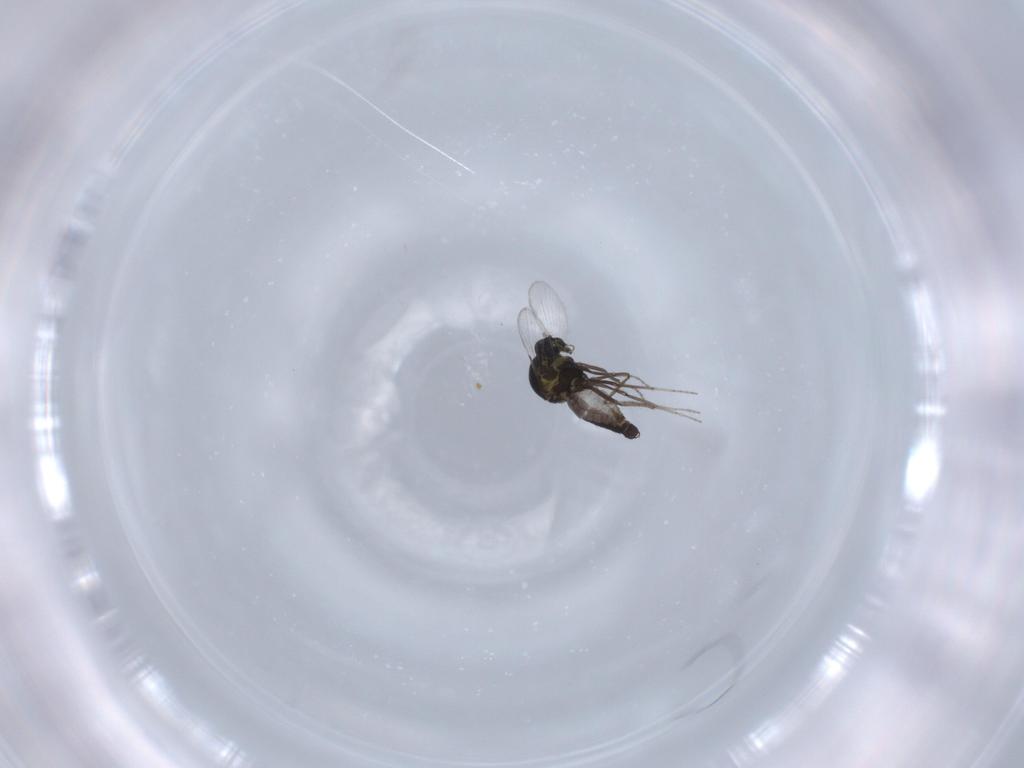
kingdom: Animalia
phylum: Arthropoda
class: Insecta
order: Diptera
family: Ceratopogonidae
